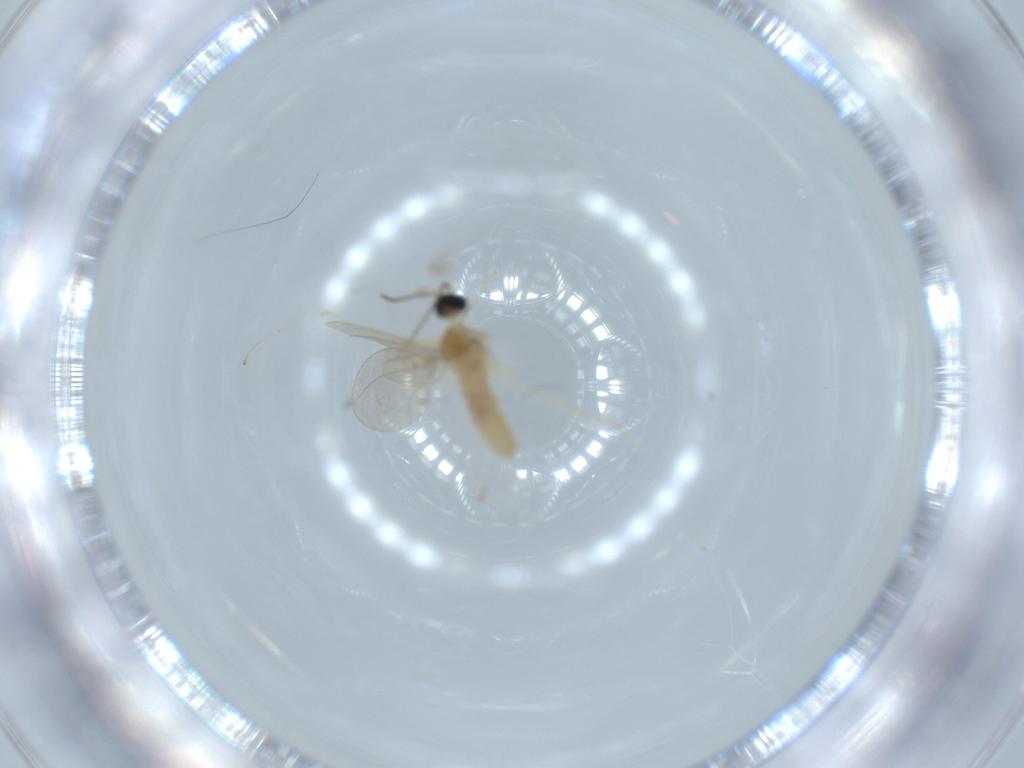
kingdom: Animalia
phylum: Arthropoda
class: Insecta
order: Diptera
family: Cecidomyiidae
